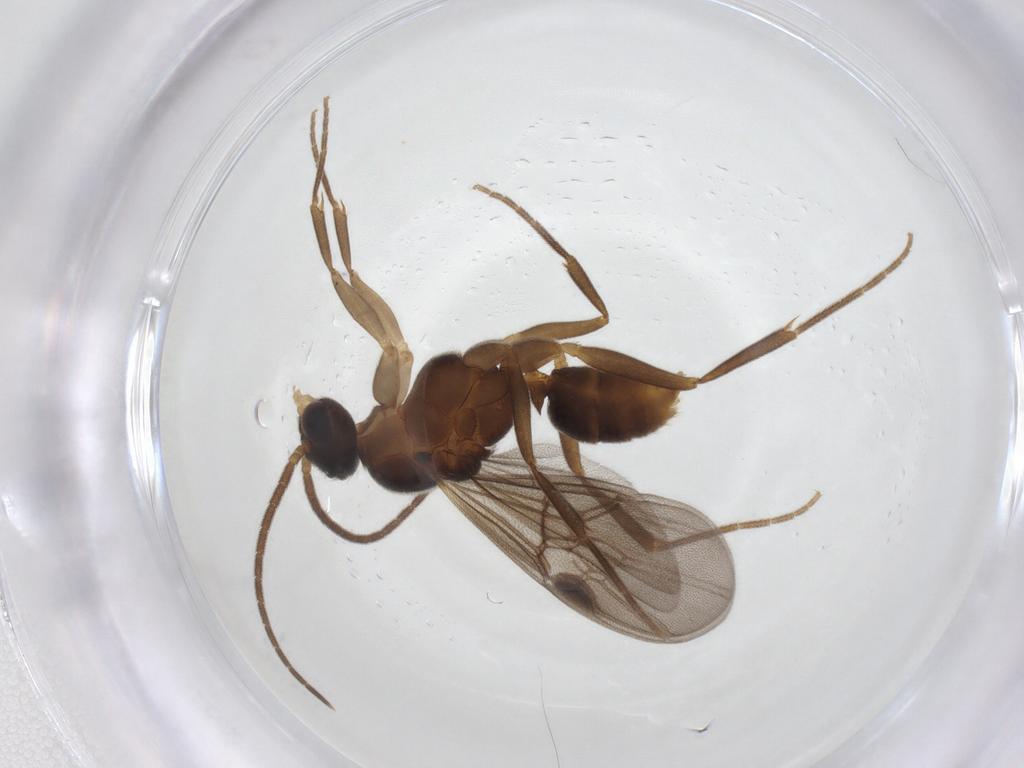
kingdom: Animalia
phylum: Arthropoda
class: Insecta
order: Hymenoptera
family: Formicidae
